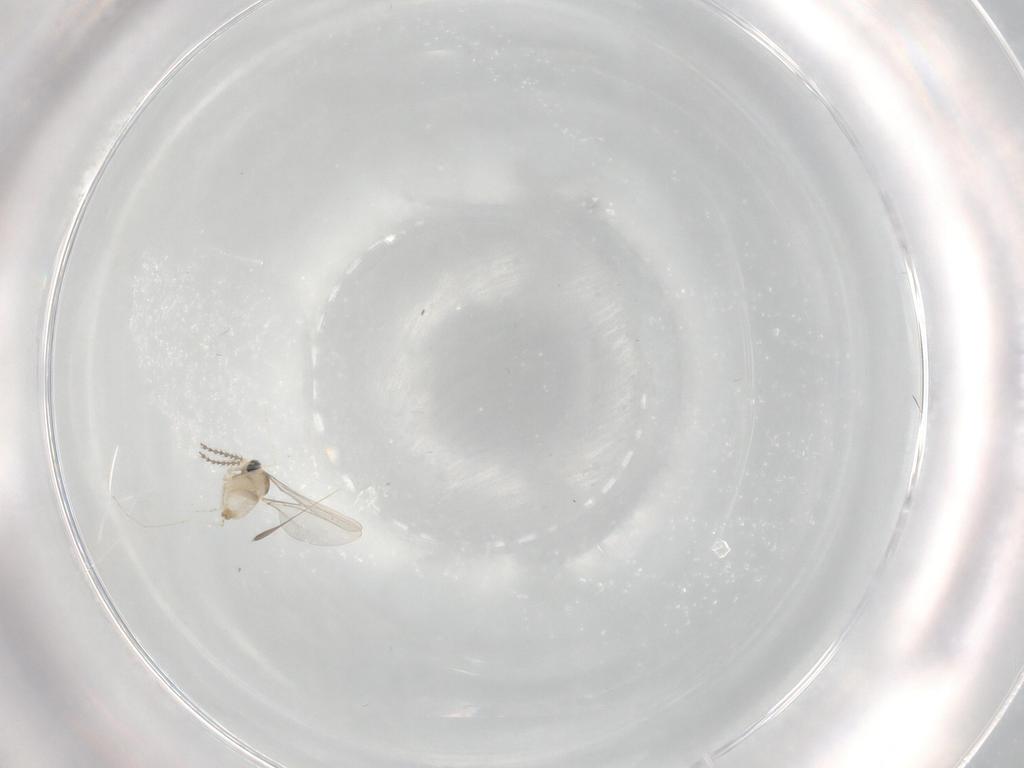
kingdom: Animalia
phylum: Arthropoda
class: Insecta
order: Diptera
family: Cecidomyiidae
